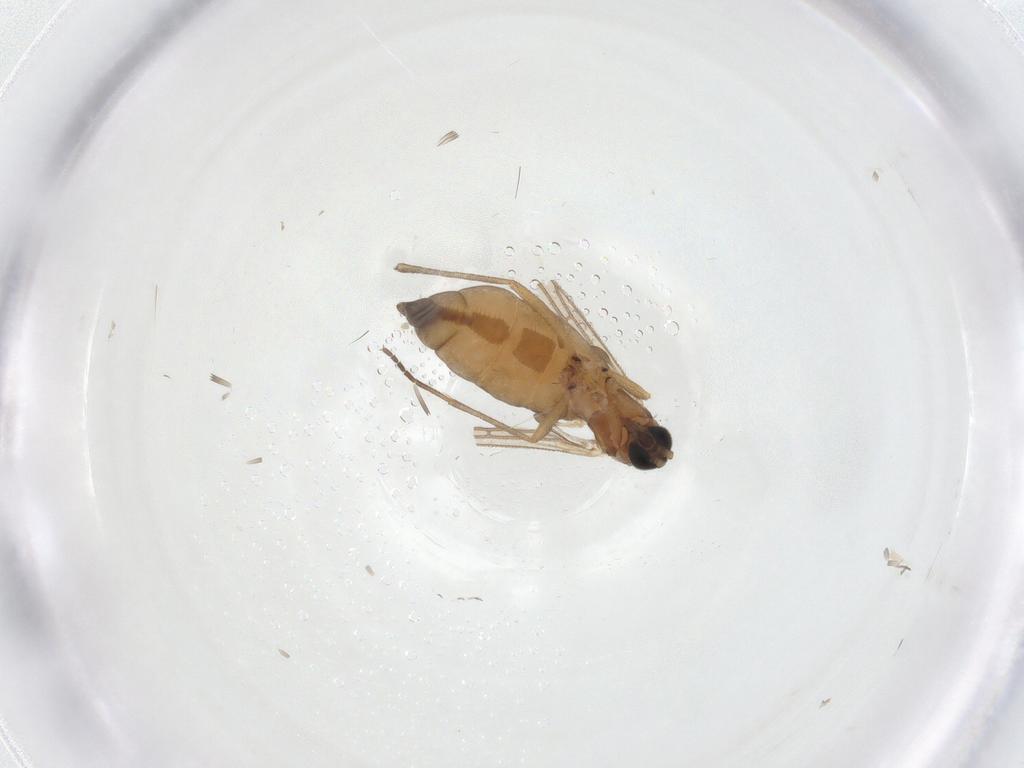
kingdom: Animalia
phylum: Arthropoda
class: Insecta
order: Diptera
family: Sciaridae
